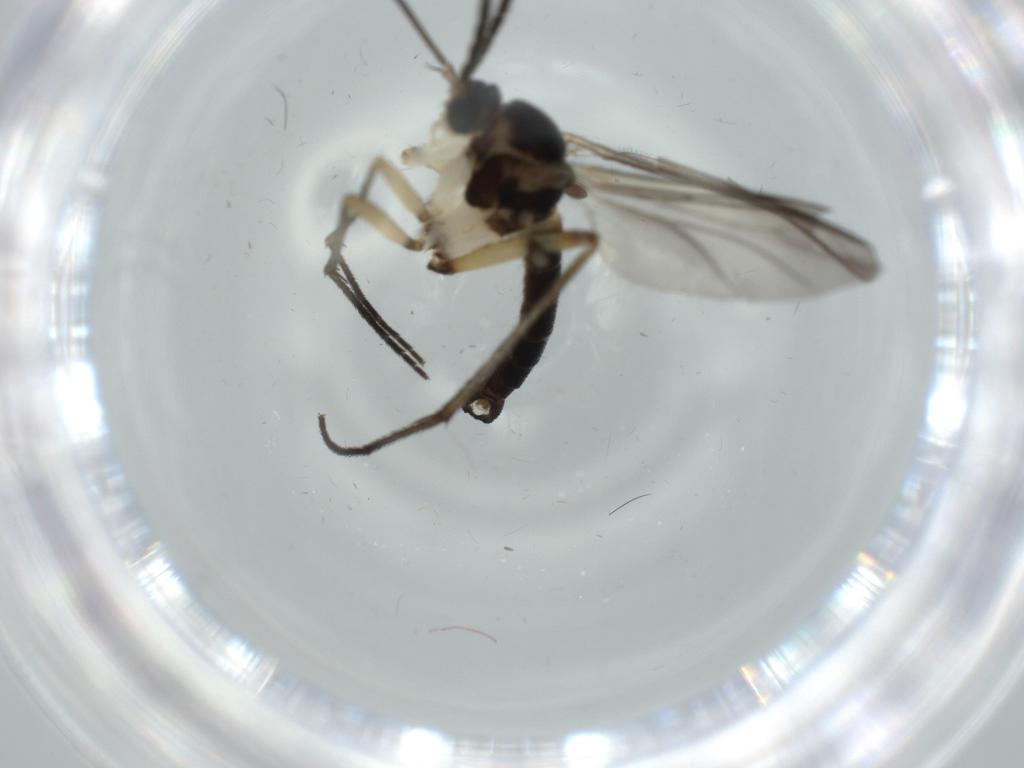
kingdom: Animalia
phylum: Arthropoda
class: Insecta
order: Diptera
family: Sciaridae
